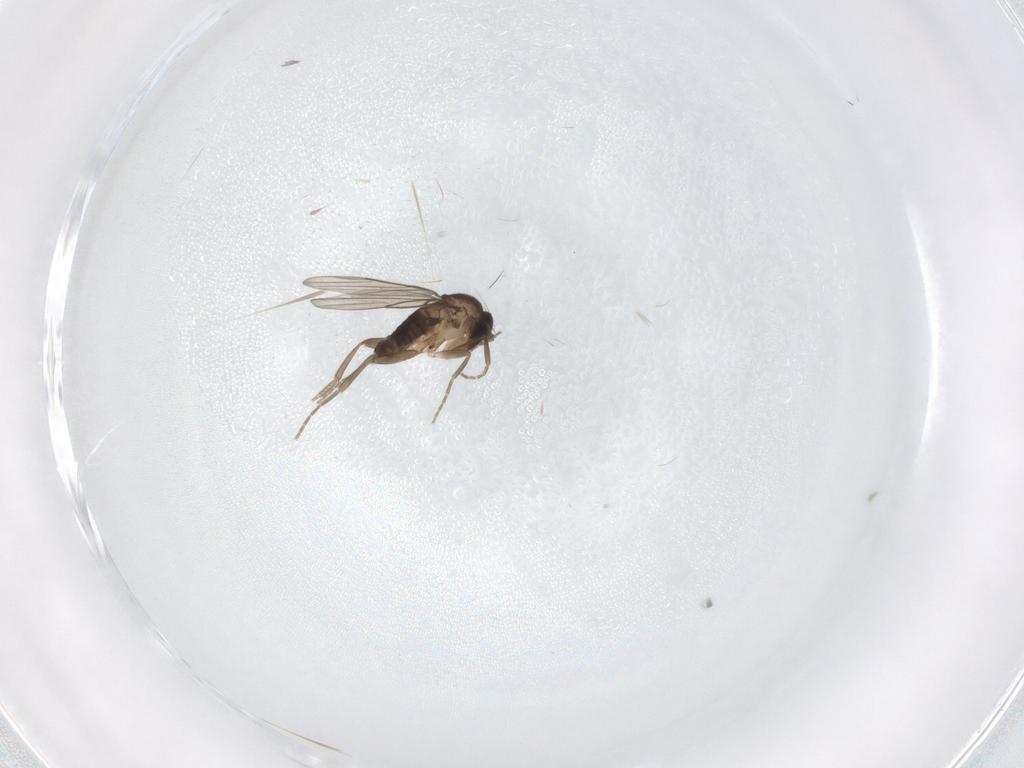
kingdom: Animalia
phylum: Arthropoda
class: Insecta
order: Diptera
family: Phoridae
